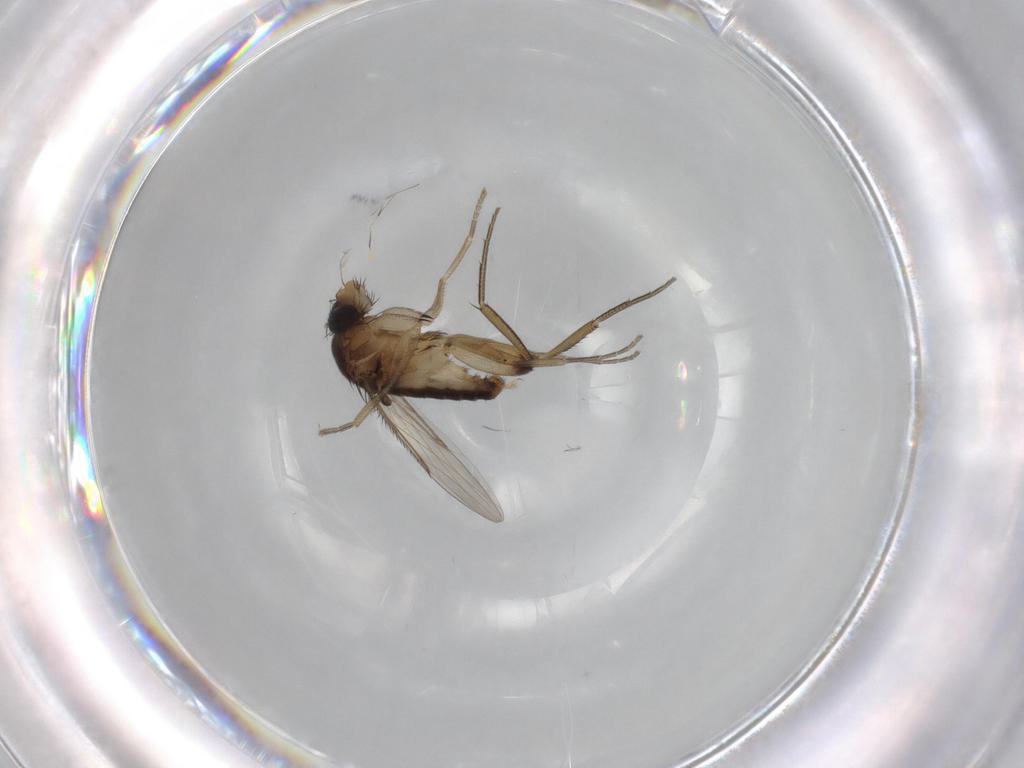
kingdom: Animalia
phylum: Arthropoda
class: Insecta
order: Diptera
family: Phoridae
